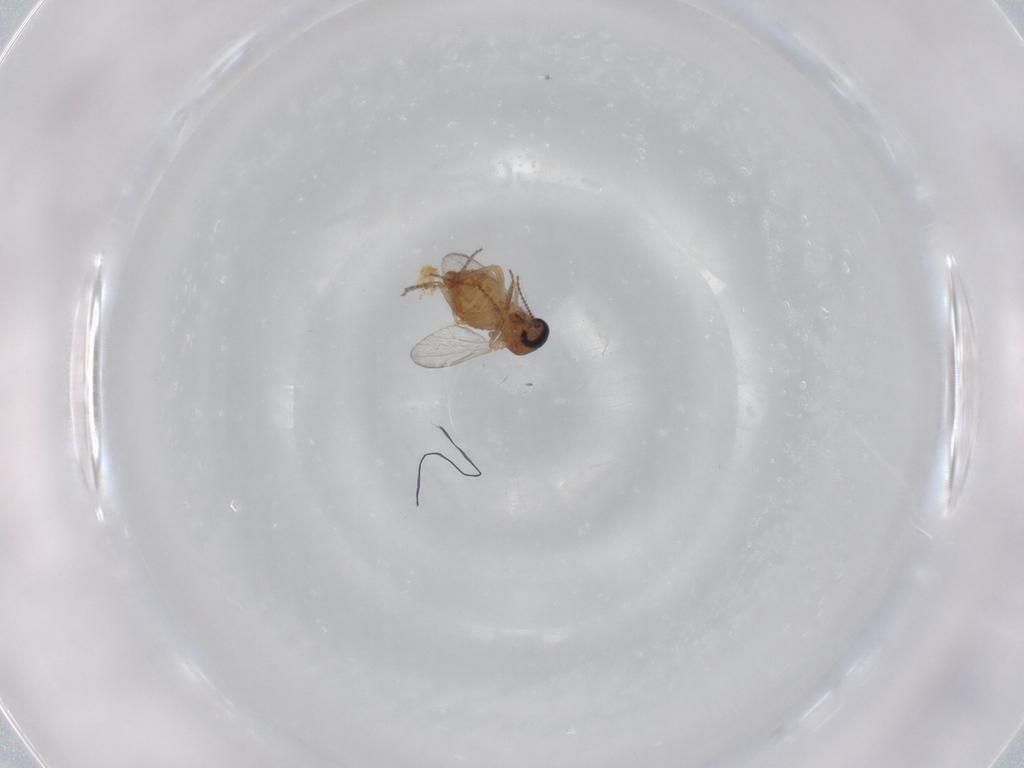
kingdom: Animalia
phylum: Arthropoda
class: Insecta
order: Diptera
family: Ceratopogonidae
